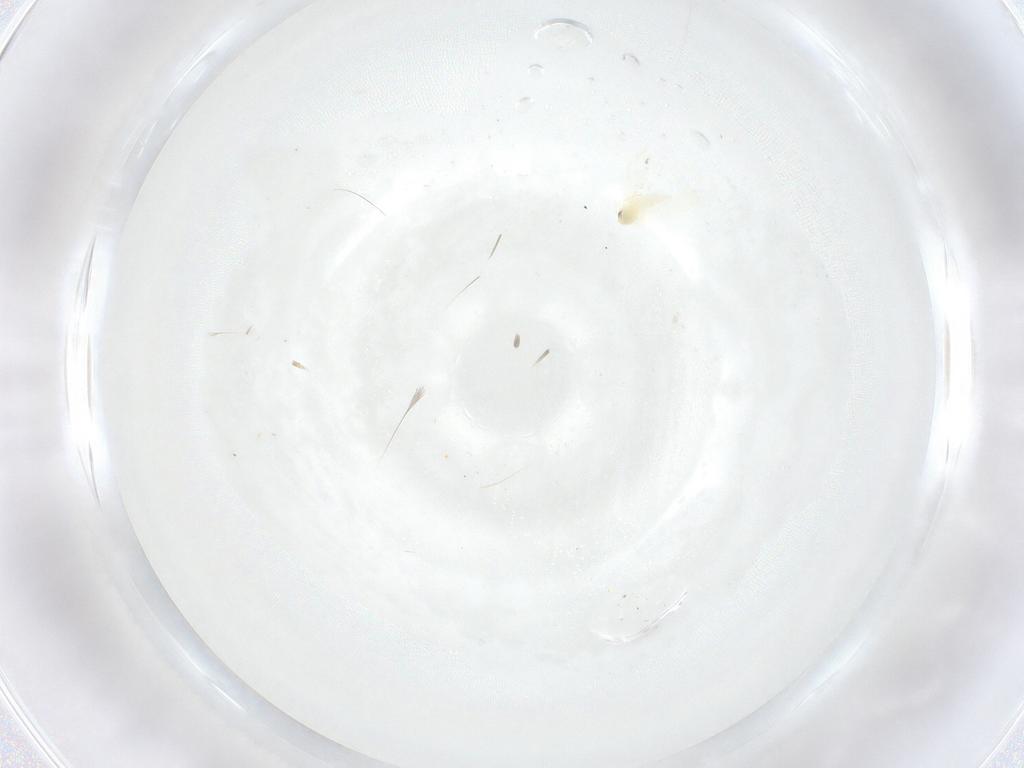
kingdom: Animalia
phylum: Arthropoda
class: Insecta
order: Hemiptera
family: Aleyrodidae
